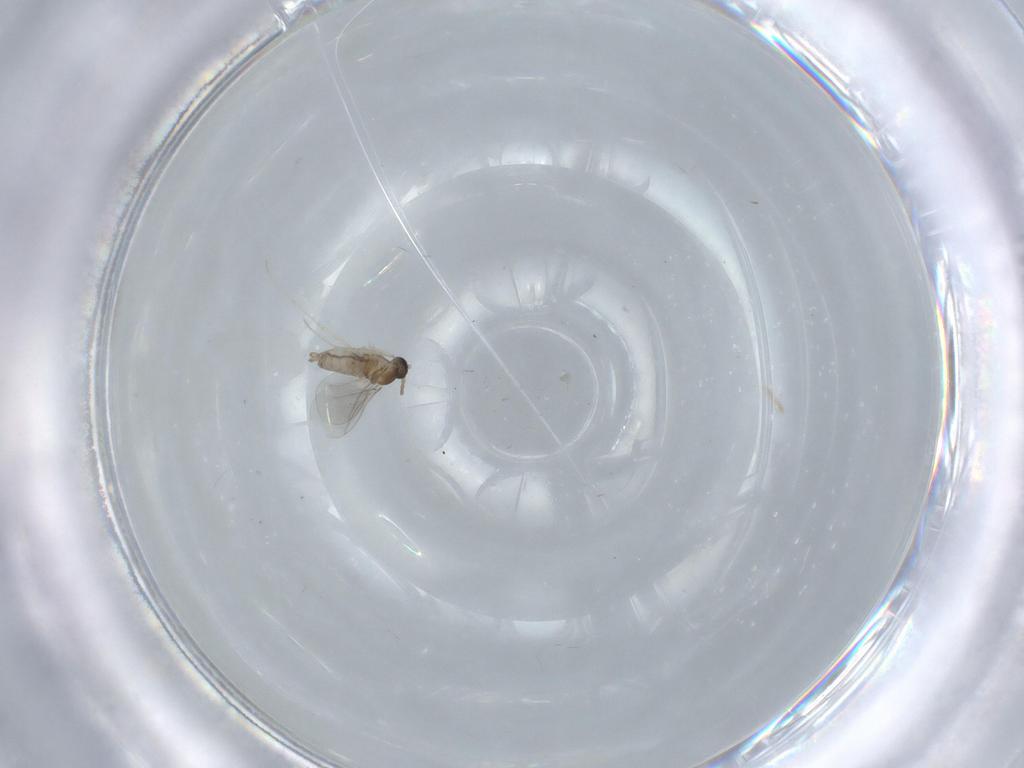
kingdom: Animalia
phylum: Arthropoda
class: Insecta
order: Diptera
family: Cecidomyiidae
